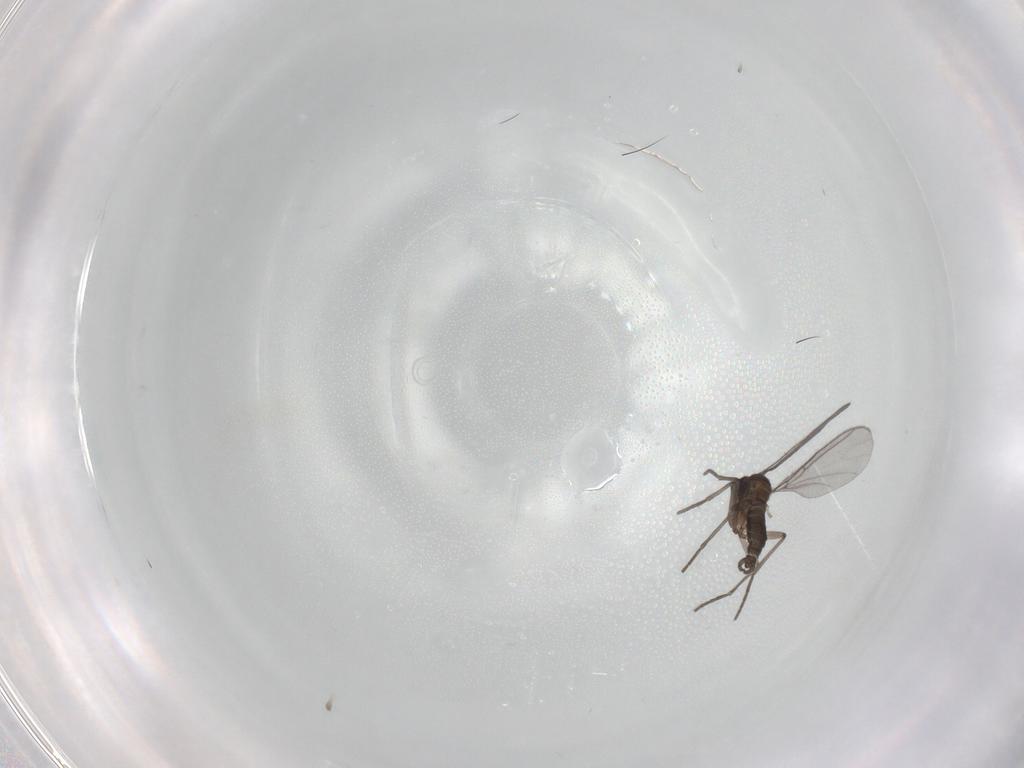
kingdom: Animalia
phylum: Arthropoda
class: Insecta
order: Diptera
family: Sciaridae
